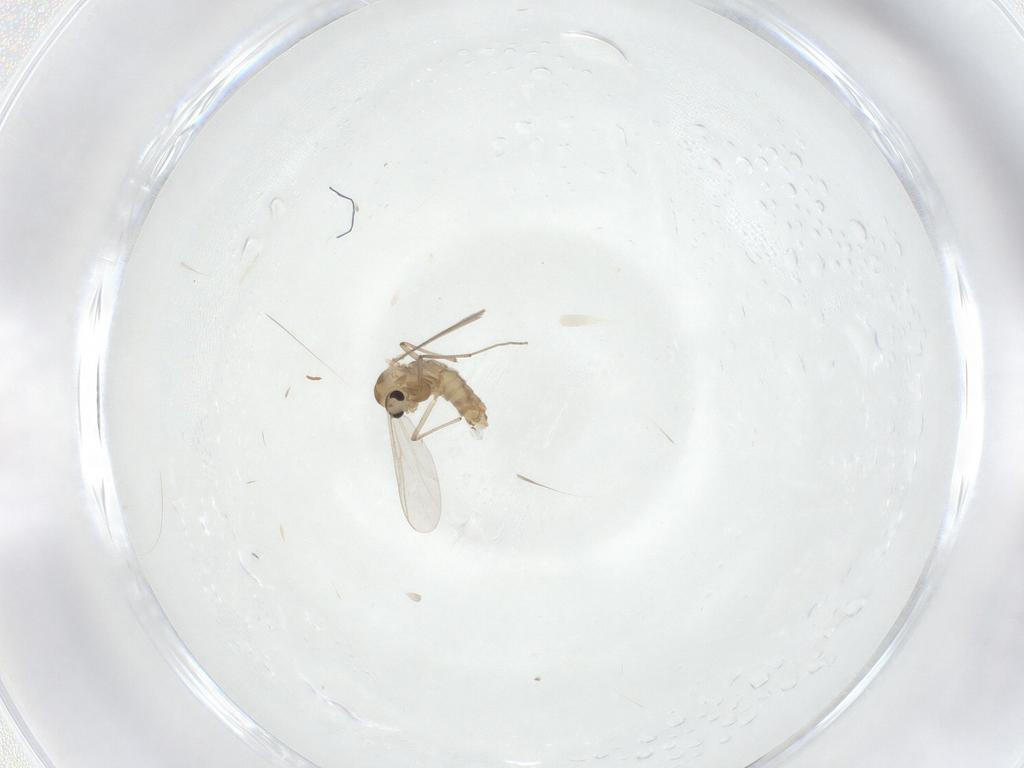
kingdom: Animalia
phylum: Arthropoda
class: Insecta
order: Diptera
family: Chironomidae
